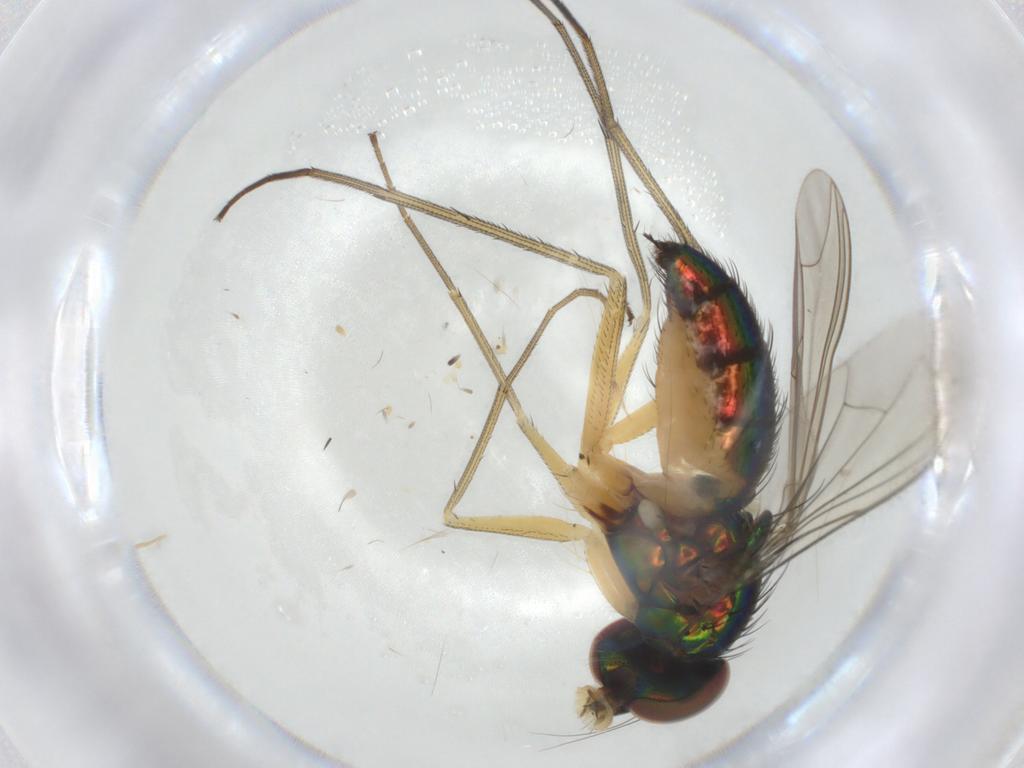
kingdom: Animalia
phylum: Arthropoda
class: Insecta
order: Diptera
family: Dolichopodidae
